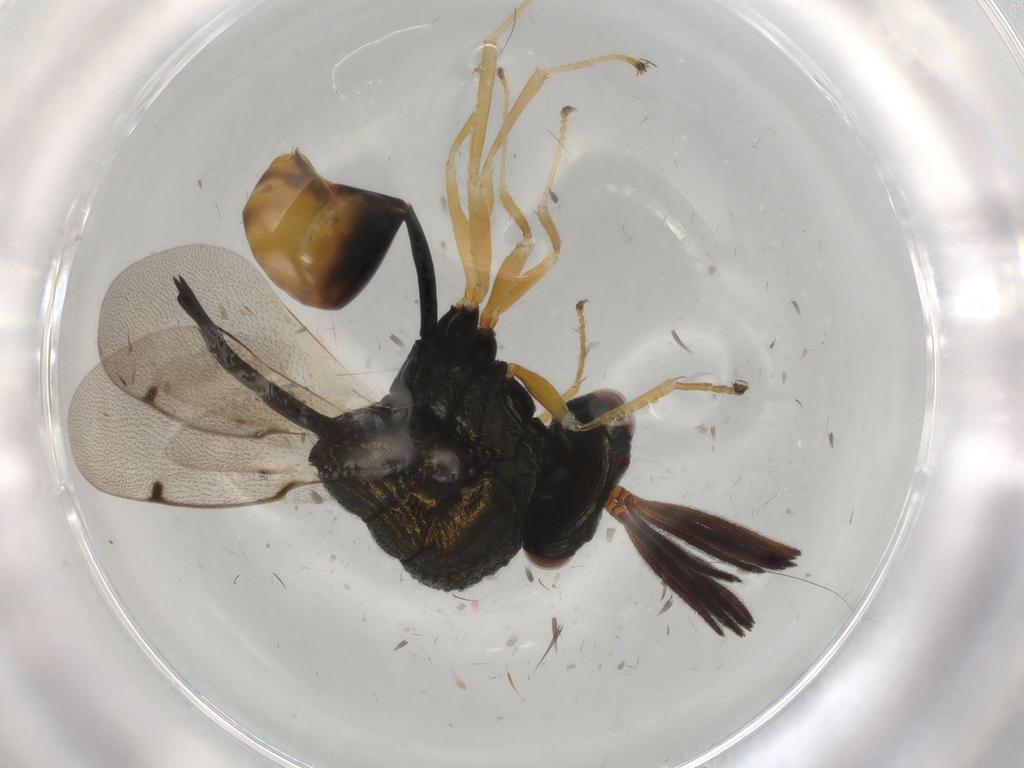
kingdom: Animalia
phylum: Arthropoda
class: Insecta
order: Hymenoptera
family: Eucharitidae
